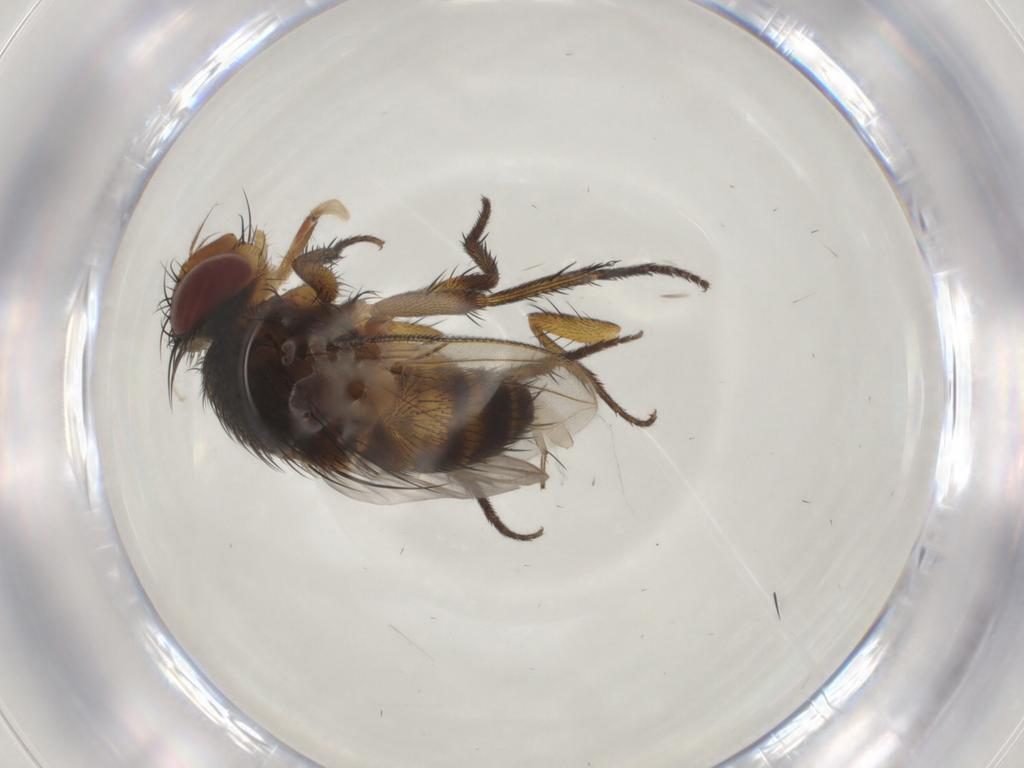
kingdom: Animalia
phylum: Arthropoda
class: Insecta
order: Diptera
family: Tachinidae
